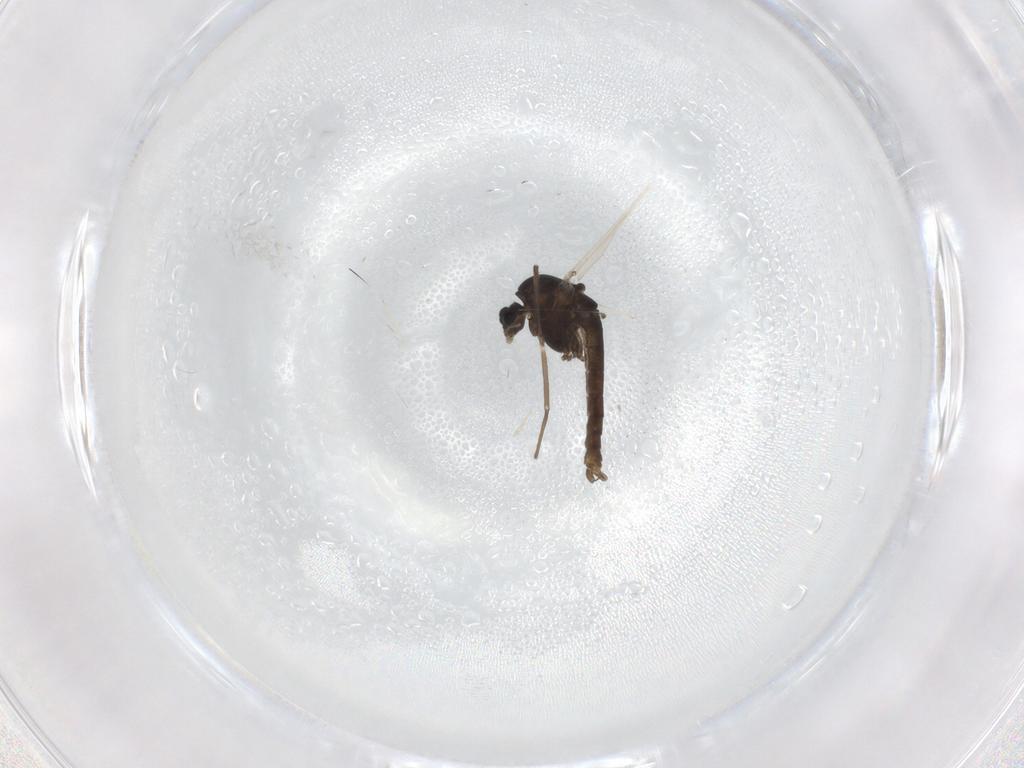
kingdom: Animalia
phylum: Arthropoda
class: Insecta
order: Diptera
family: Chironomidae
